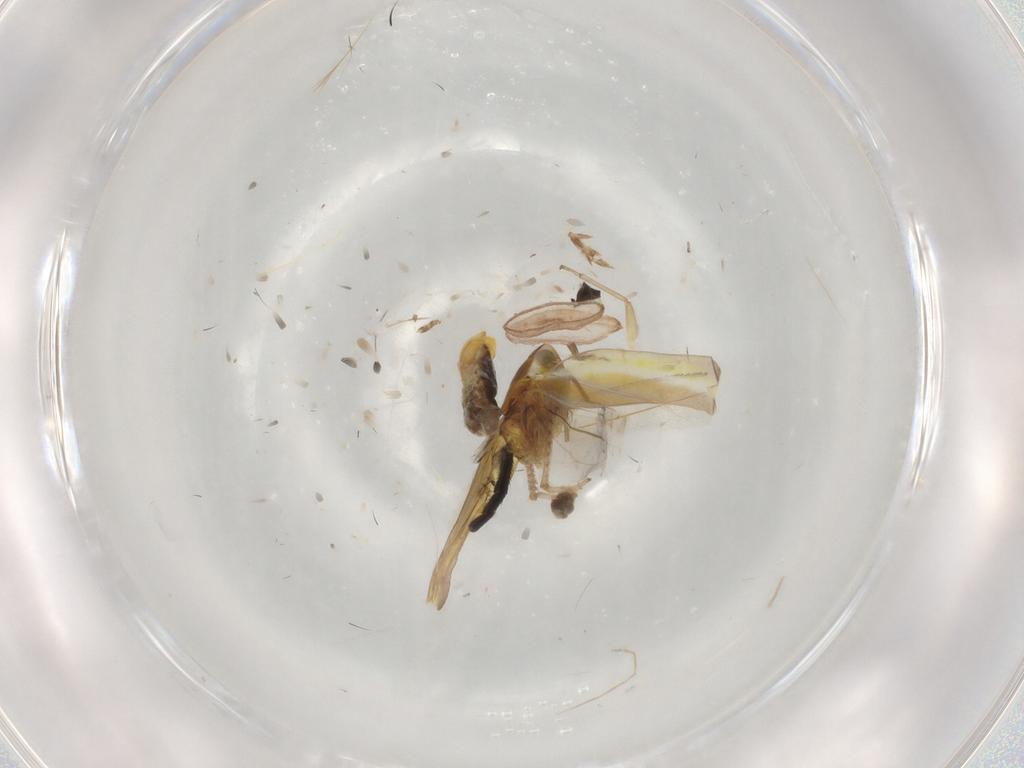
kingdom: Animalia
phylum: Arthropoda
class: Insecta
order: Hemiptera
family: Cicadellidae
